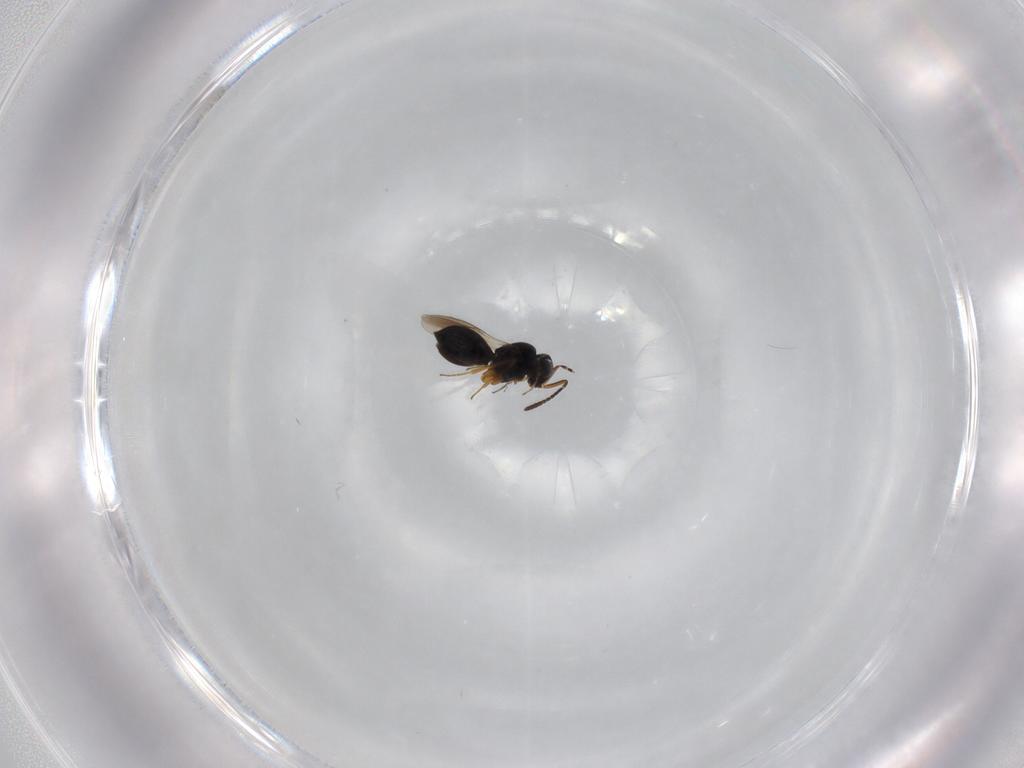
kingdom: Animalia
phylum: Arthropoda
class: Insecta
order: Hymenoptera
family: Scelionidae
